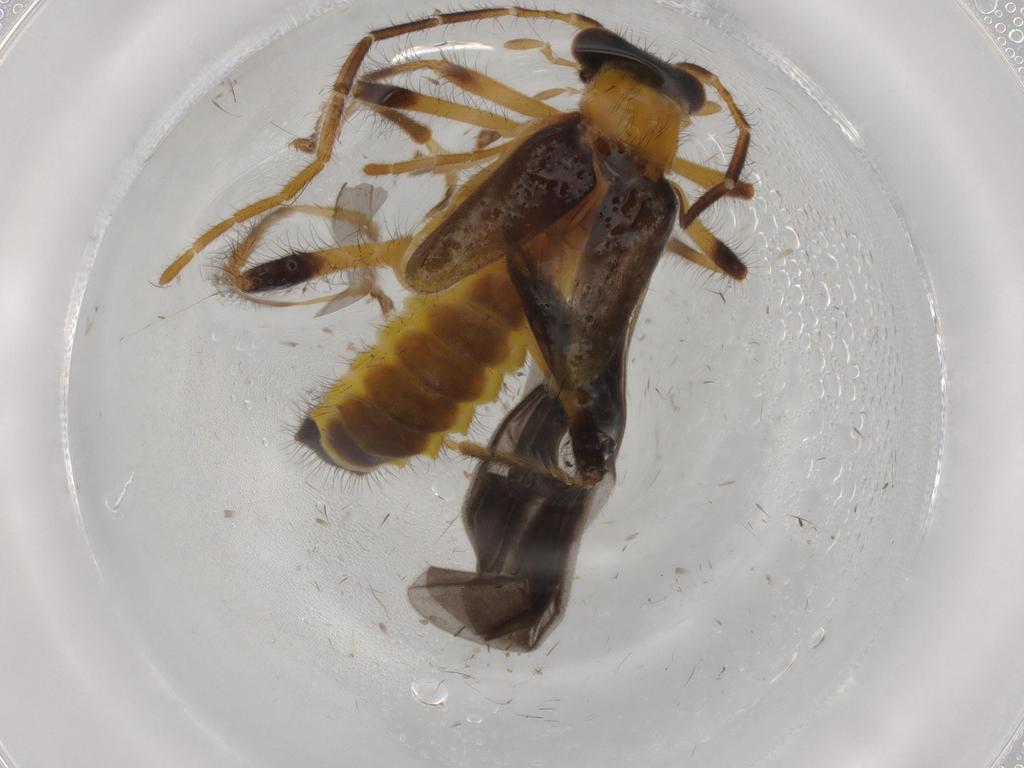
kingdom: Animalia
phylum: Arthropoda
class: Insecta
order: Coleoptera
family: Cantharidae
